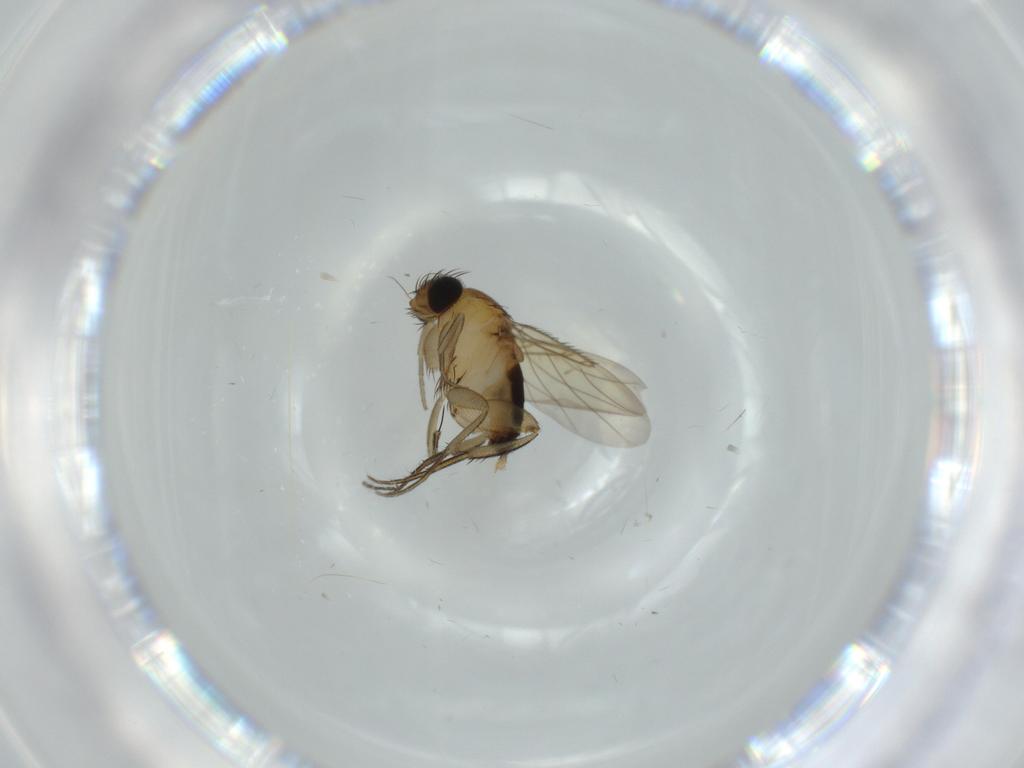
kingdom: Animalia
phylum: Arthropoda
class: Insecta
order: Diptera
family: Phoridae
